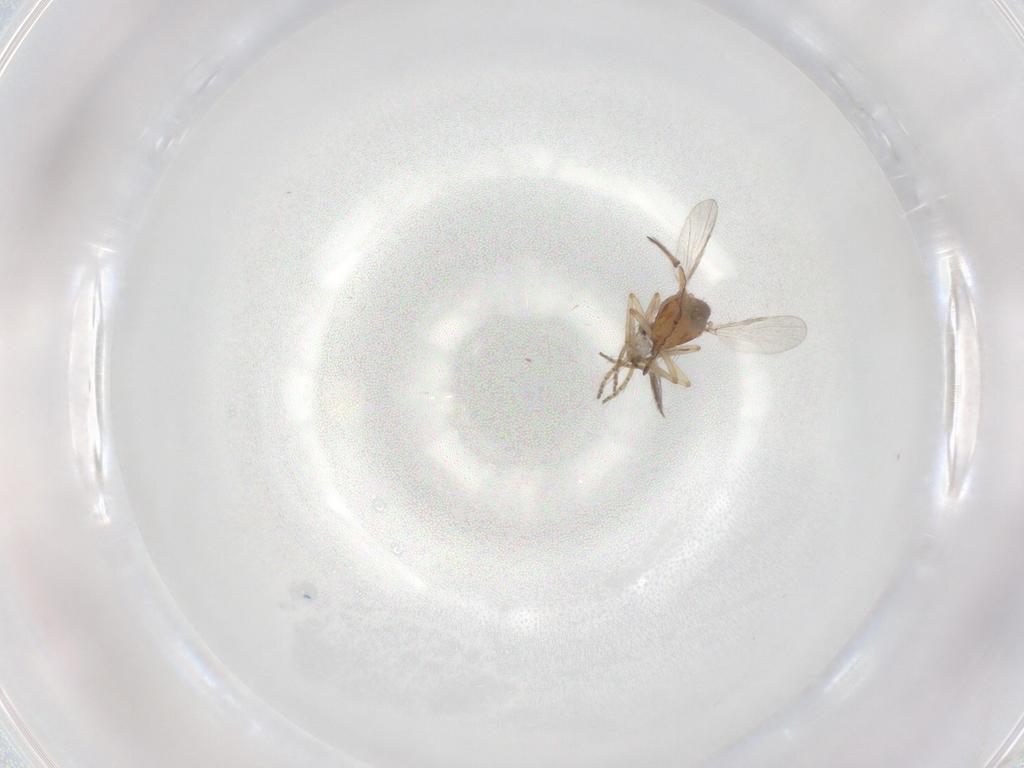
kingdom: Animalia
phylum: Arthropoda
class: Insecta
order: Diptera
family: Ceratopogonidae
